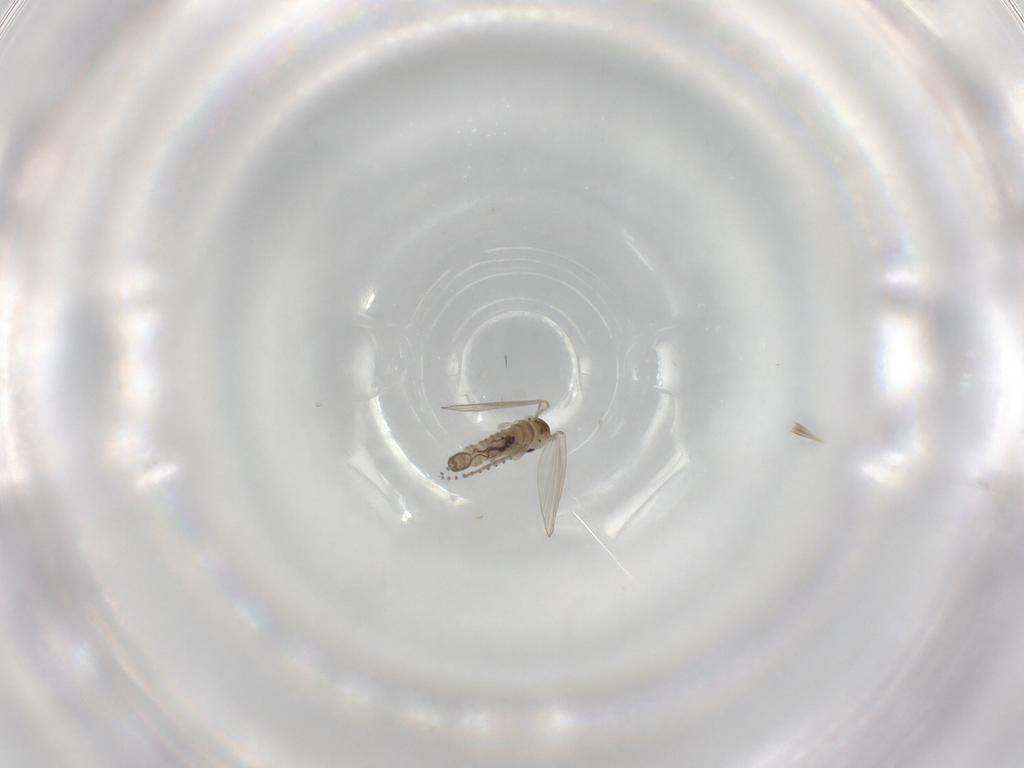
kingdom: Animalia
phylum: Arthropoda
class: Insecta
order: Diptera
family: Psychodidae
